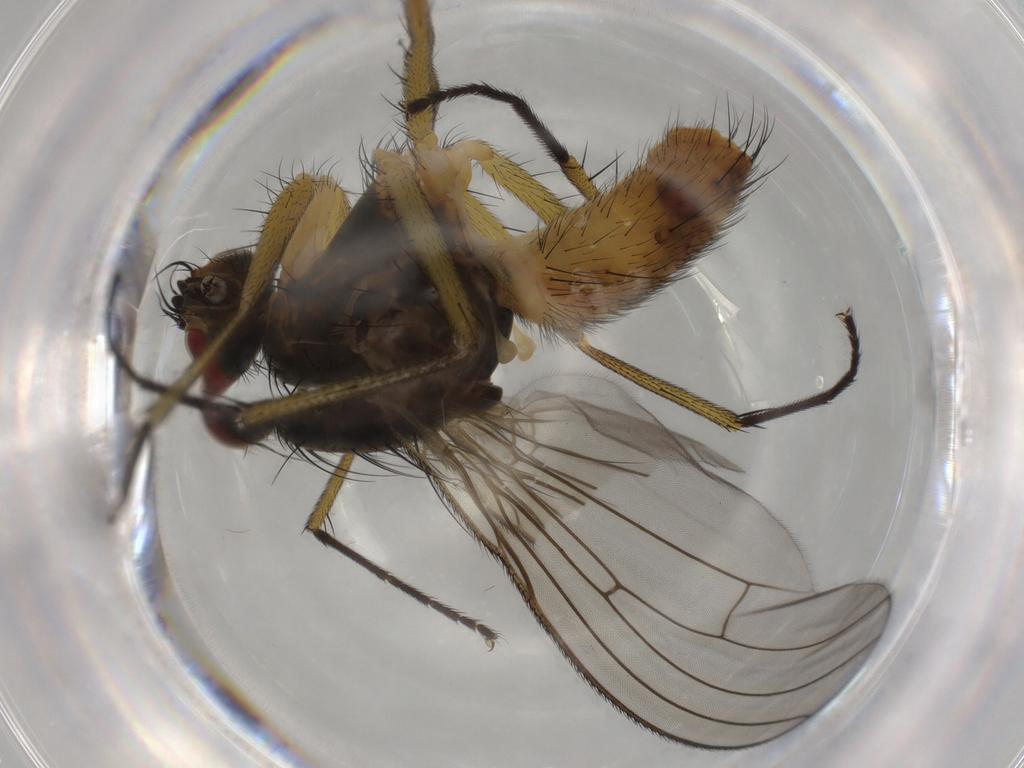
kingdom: Animalia
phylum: Arthropoda
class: Insecta
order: Diptera
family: Muscidae
